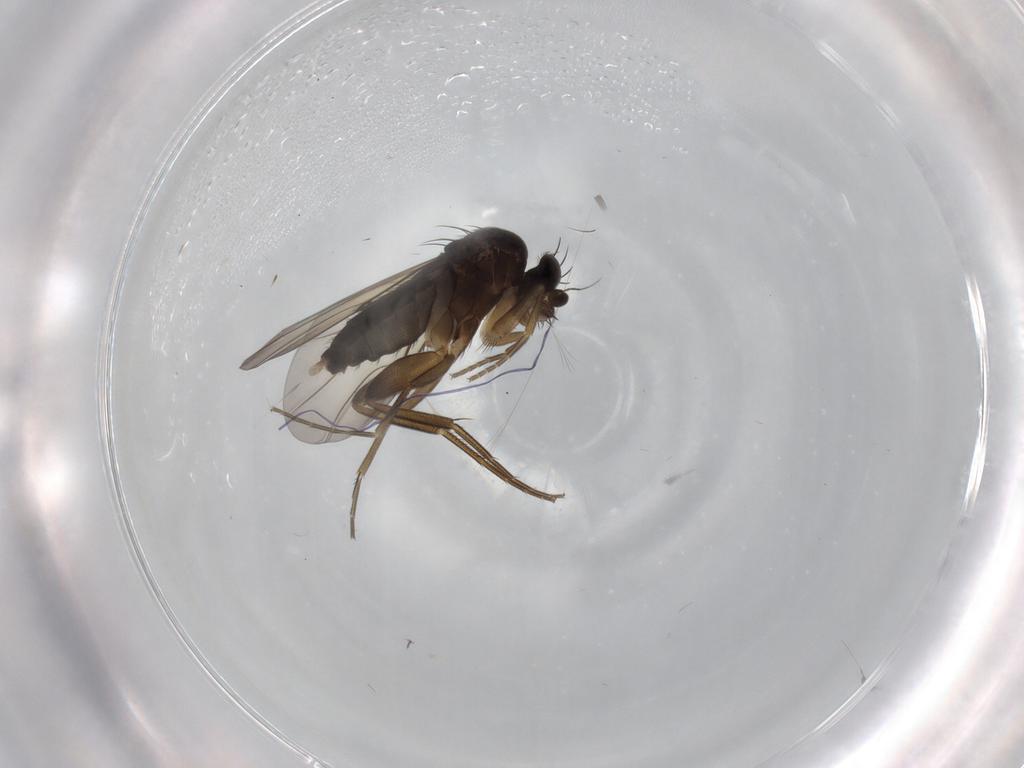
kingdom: Animalia
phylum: Arthropoda
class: Insecta
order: Diptera
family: Phoridae
